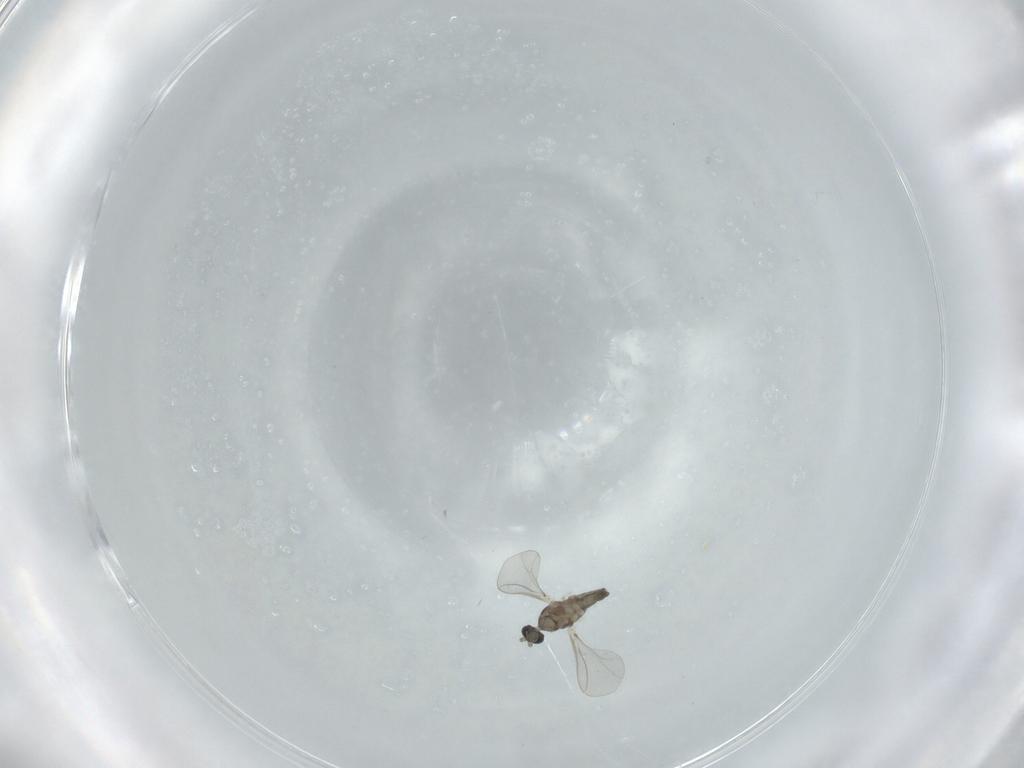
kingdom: Animalia
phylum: Arthropoda
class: Insecta
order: Diptera
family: Cecidomyiidae
